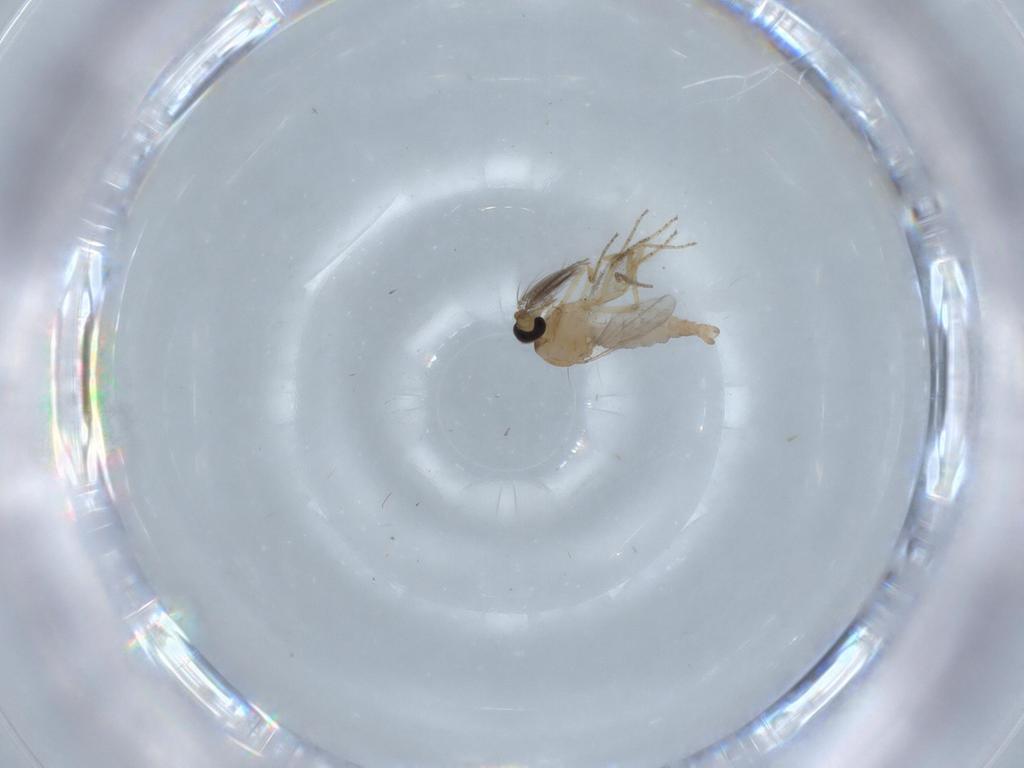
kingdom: Animalia
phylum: Arthropoda
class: Insecta
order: Diptera
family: Ceratopogonidae
